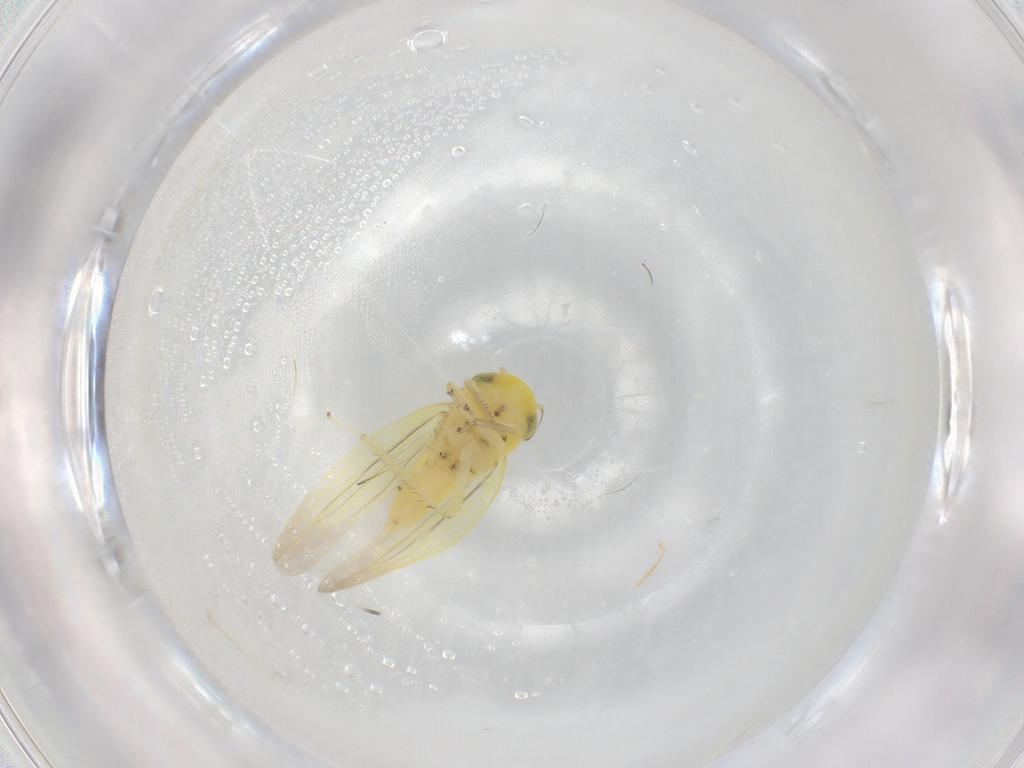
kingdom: Animalia
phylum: Arthropoda
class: Insecta
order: Hemiptera
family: Cicadellidae
